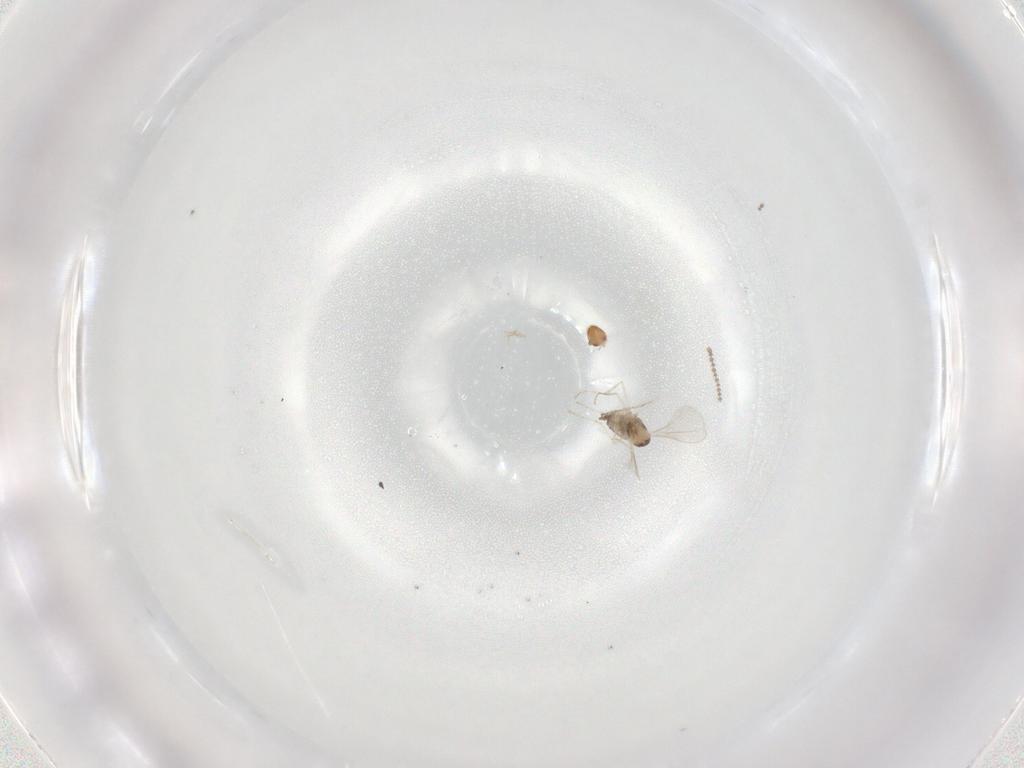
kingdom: Animalia
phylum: Arthropoda
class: Insecta
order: Diptera
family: Cecidomyiidae
